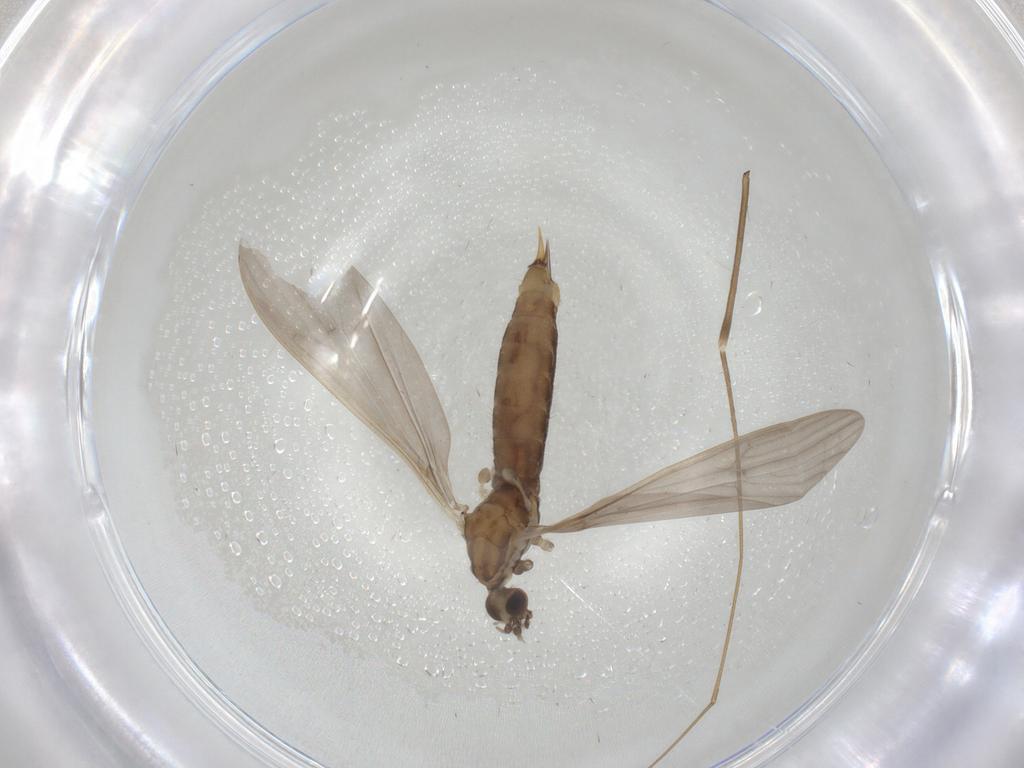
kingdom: Animalia
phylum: Arthropoda
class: Insecta
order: Diptera
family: Limoniidae
